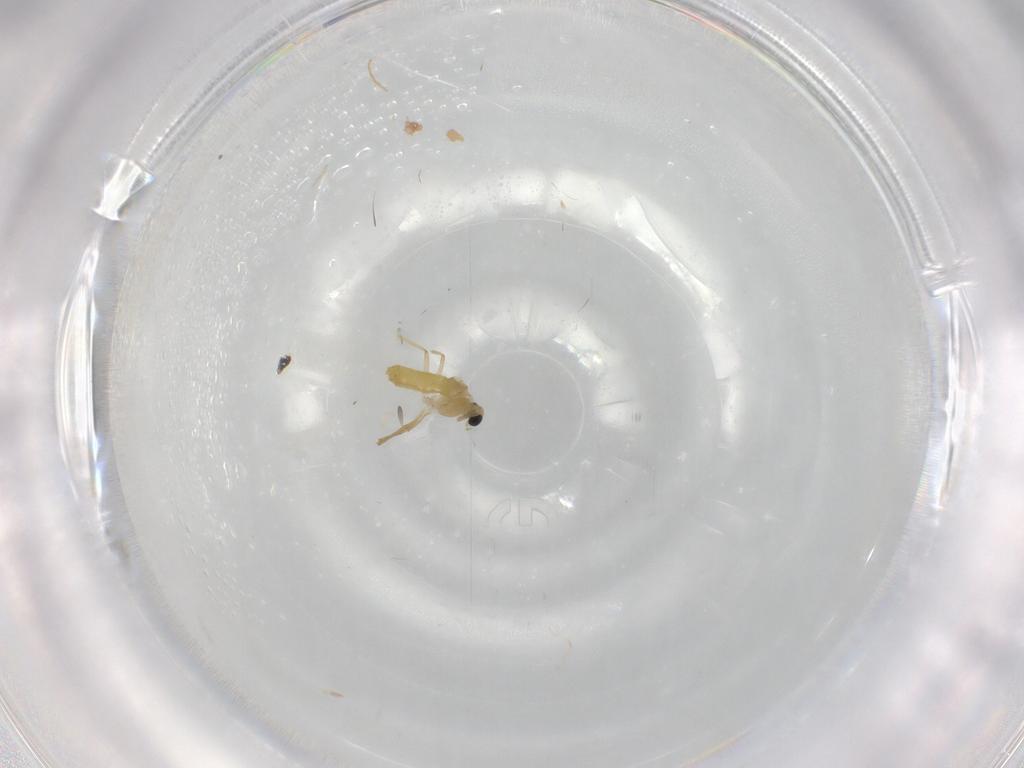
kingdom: Animalia
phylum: Arthropoda
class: Insecta
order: Diptera
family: Chironomidae
